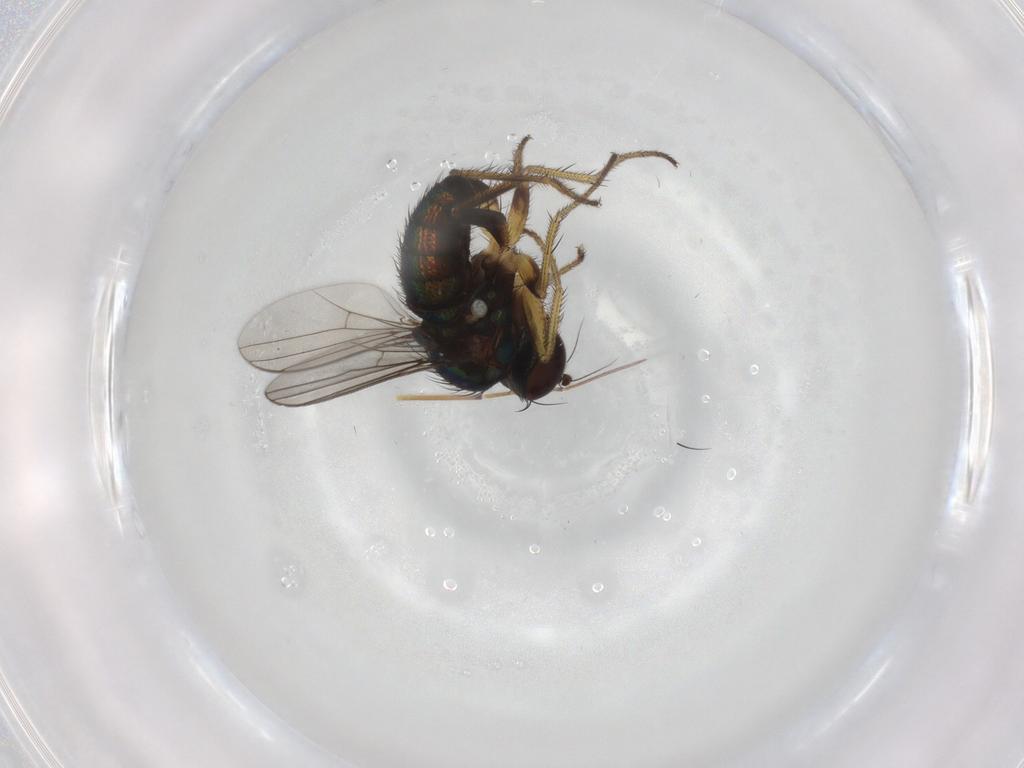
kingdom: Animalia
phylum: Arthropoda
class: Insecta
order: Diptera
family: Dolichopodidae
